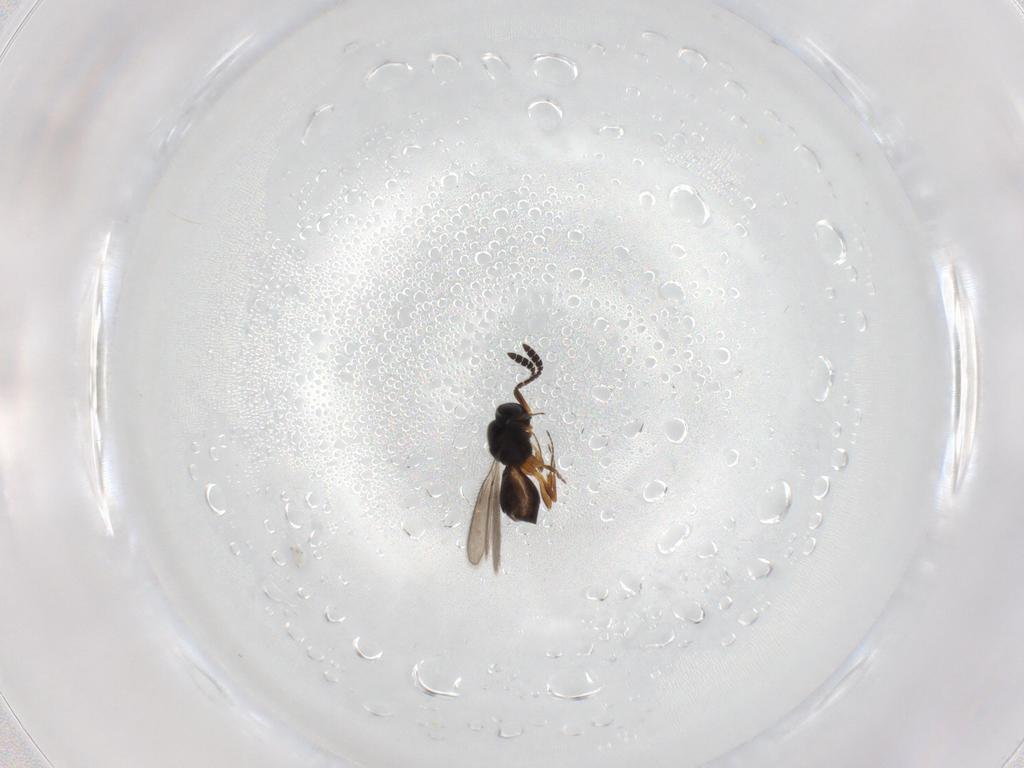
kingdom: Animalia
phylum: Arthropoda
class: Insecta
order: Hymenoptera
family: Scelionidae
